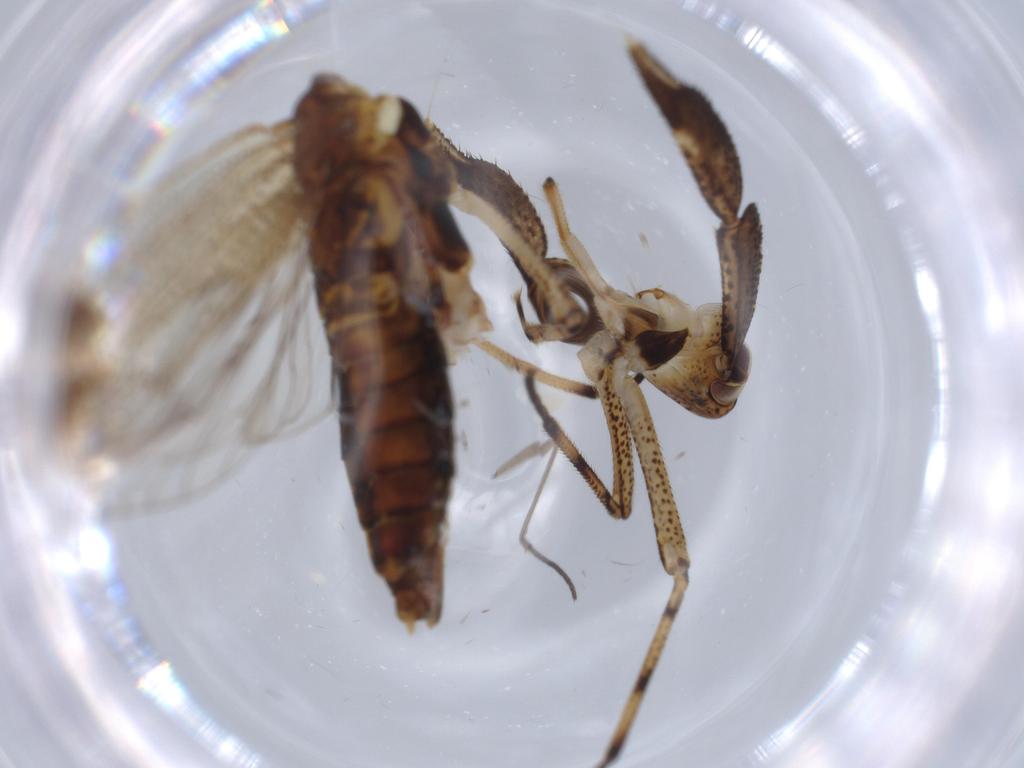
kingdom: Animalia
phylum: Arthropoda
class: Insecta
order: Hemiptera
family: Delphacidae
